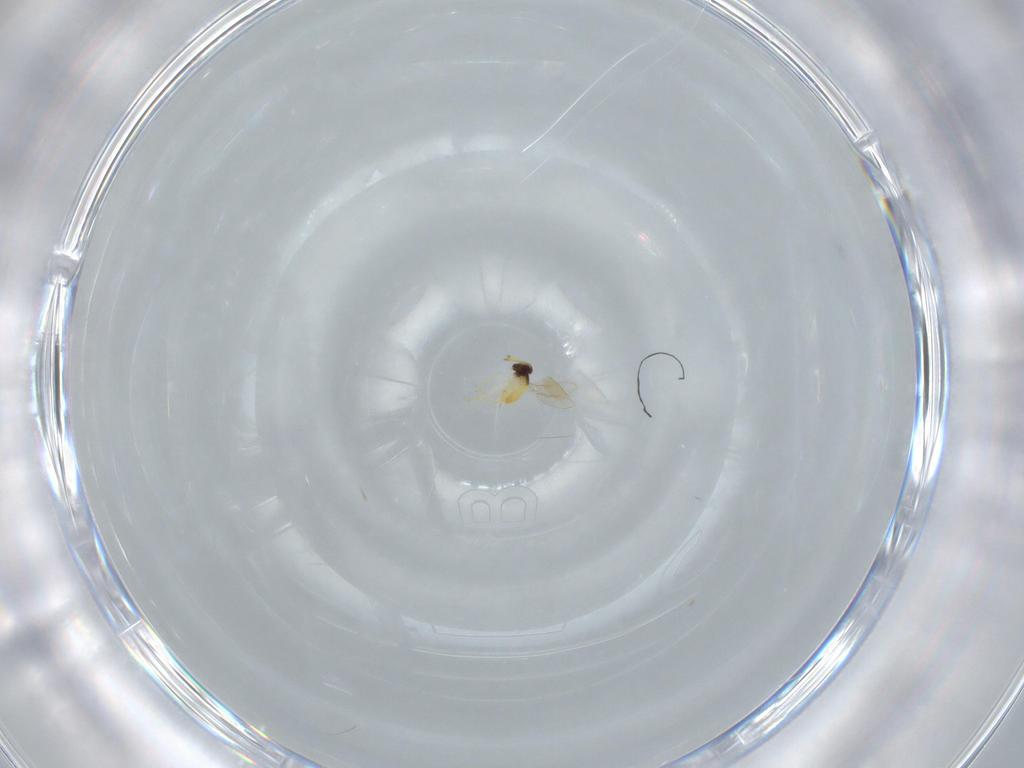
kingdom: Animalia
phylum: Arthropoda
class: Insecta
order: Hymenoptera
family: Aphelinidae
